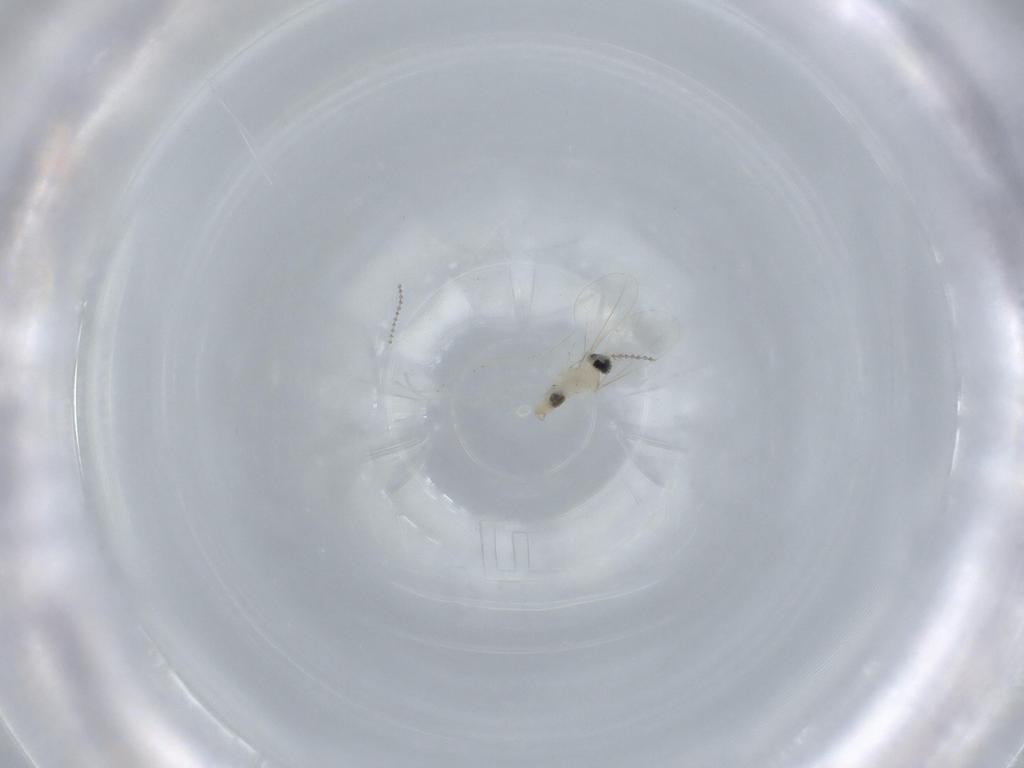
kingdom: Animalia
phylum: Arthropoda
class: Insecta
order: Diptera
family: Cecidomyiidae
